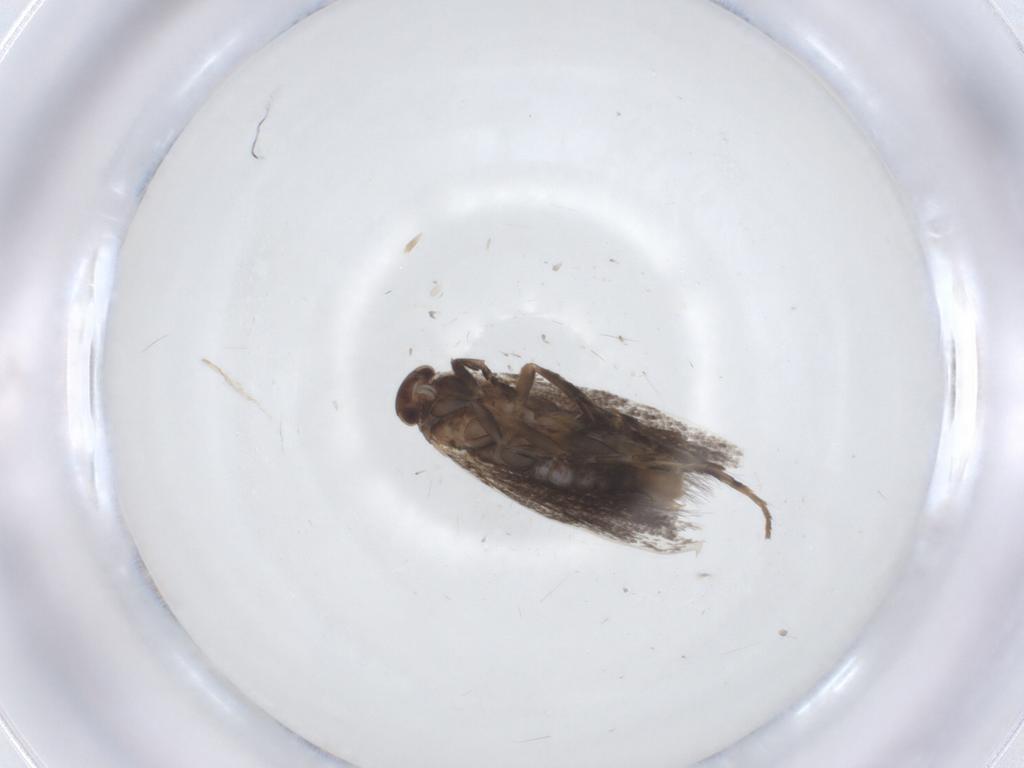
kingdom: Animalia
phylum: Arthropoda
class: Insecta
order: Lepidoptera
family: Elachistidae
